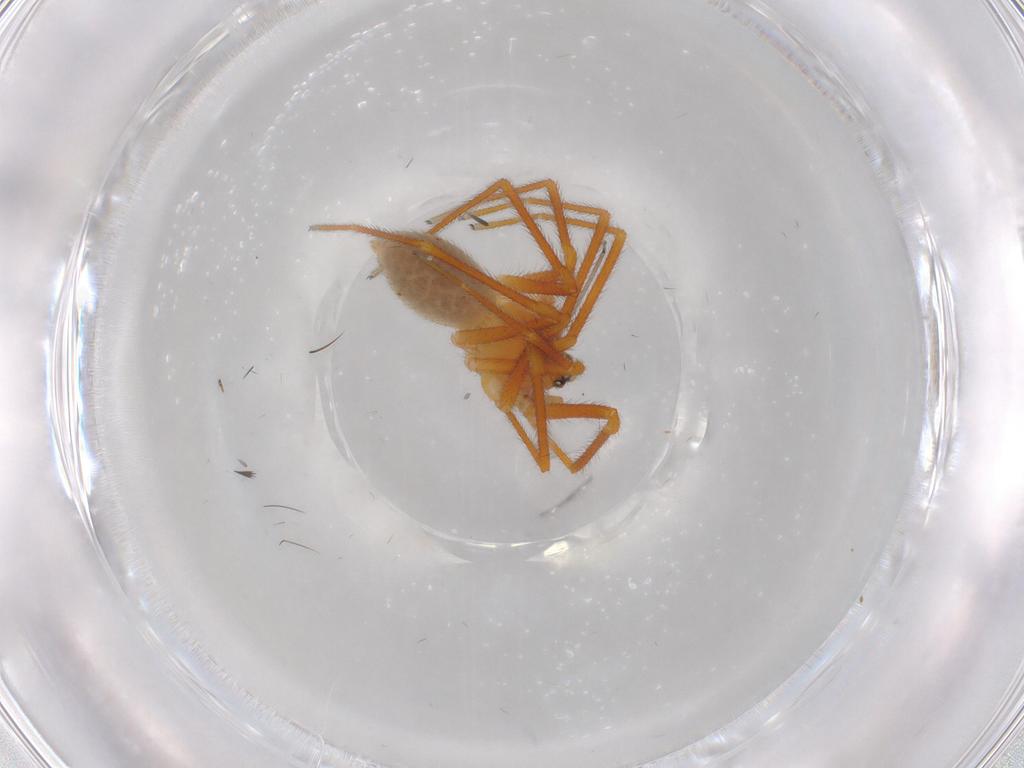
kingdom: Animalia
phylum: Arthropoda
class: Arachnida
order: Araneae
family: Linyphiidae
